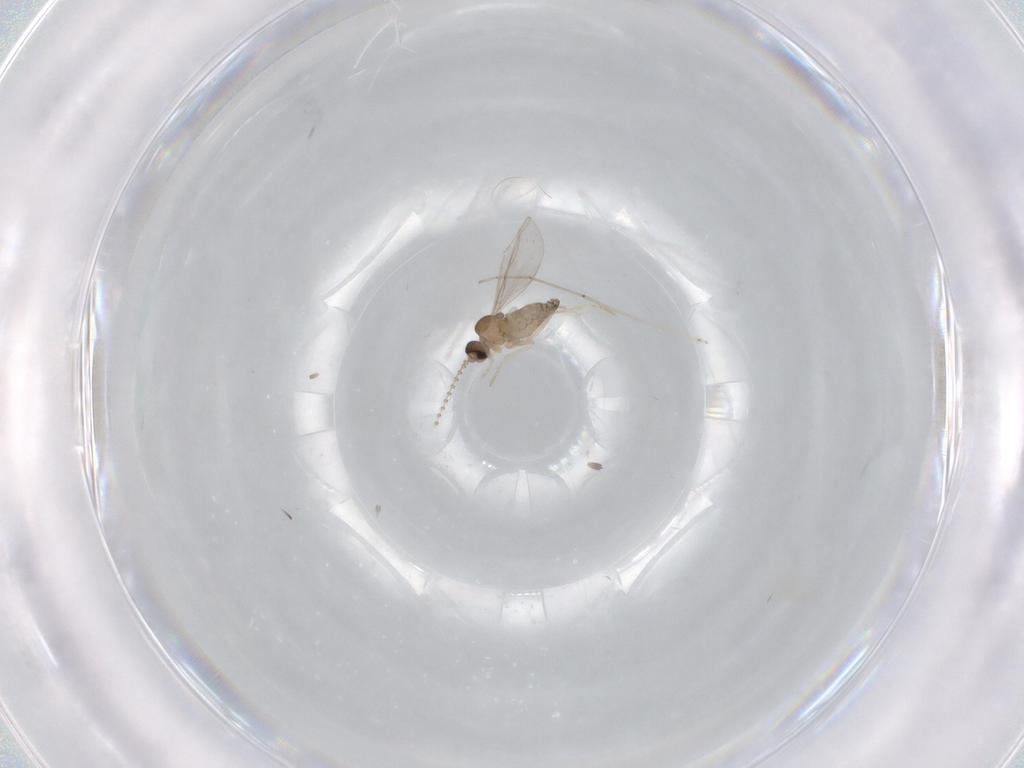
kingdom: Animalia
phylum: Arthropoda
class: Insecta
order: Diptera
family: Cecidomyiidae
